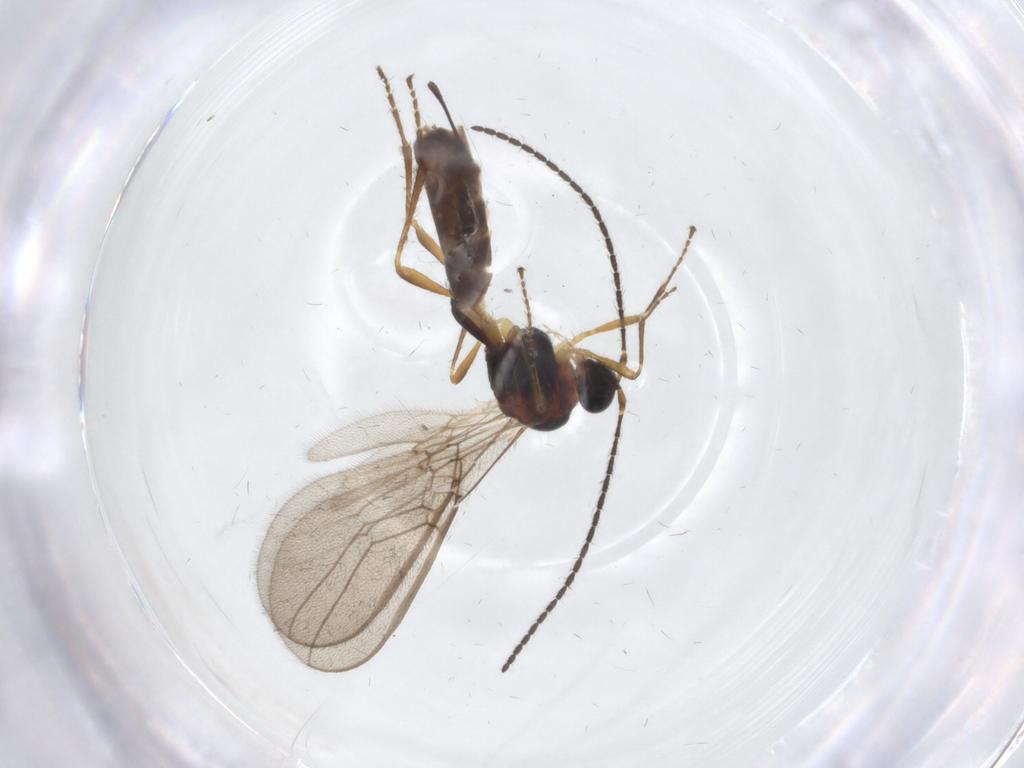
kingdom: Animalia
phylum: Arthropoda
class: Insecta
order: Hymenoptera
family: Braconidae
